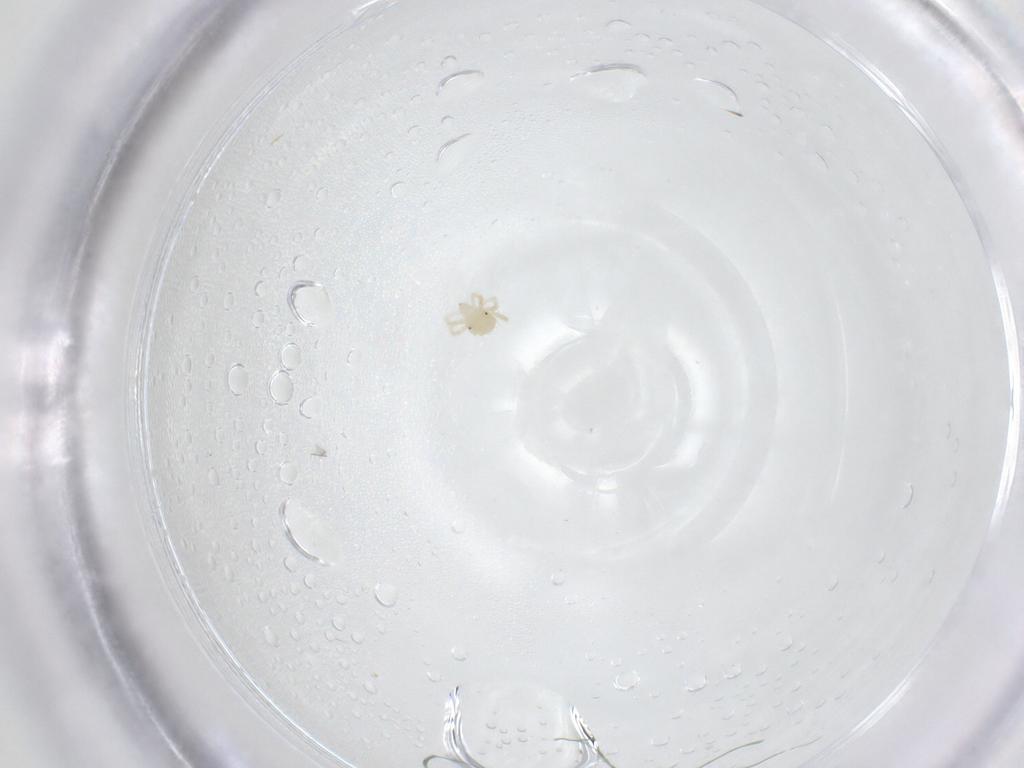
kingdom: Animalia
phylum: Arthropoda
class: Arachnida
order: Trombidiformes
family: Anystidae
